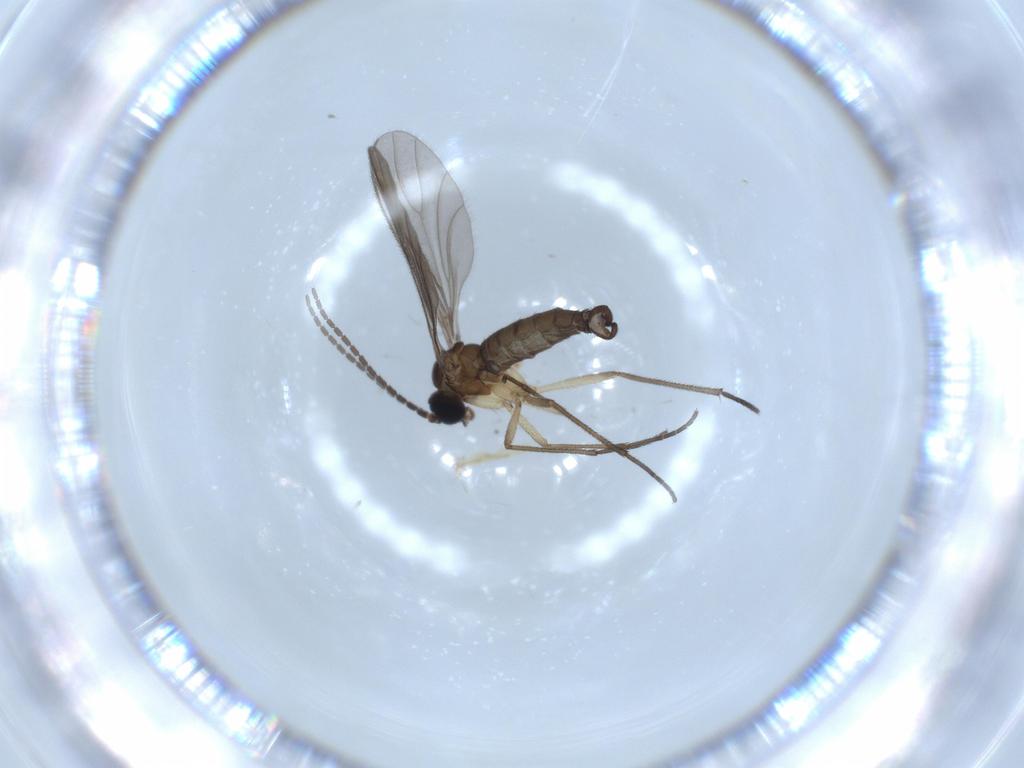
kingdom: Animalia
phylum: Arthropoda
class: Insecta
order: Diptera
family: Sciaridae
